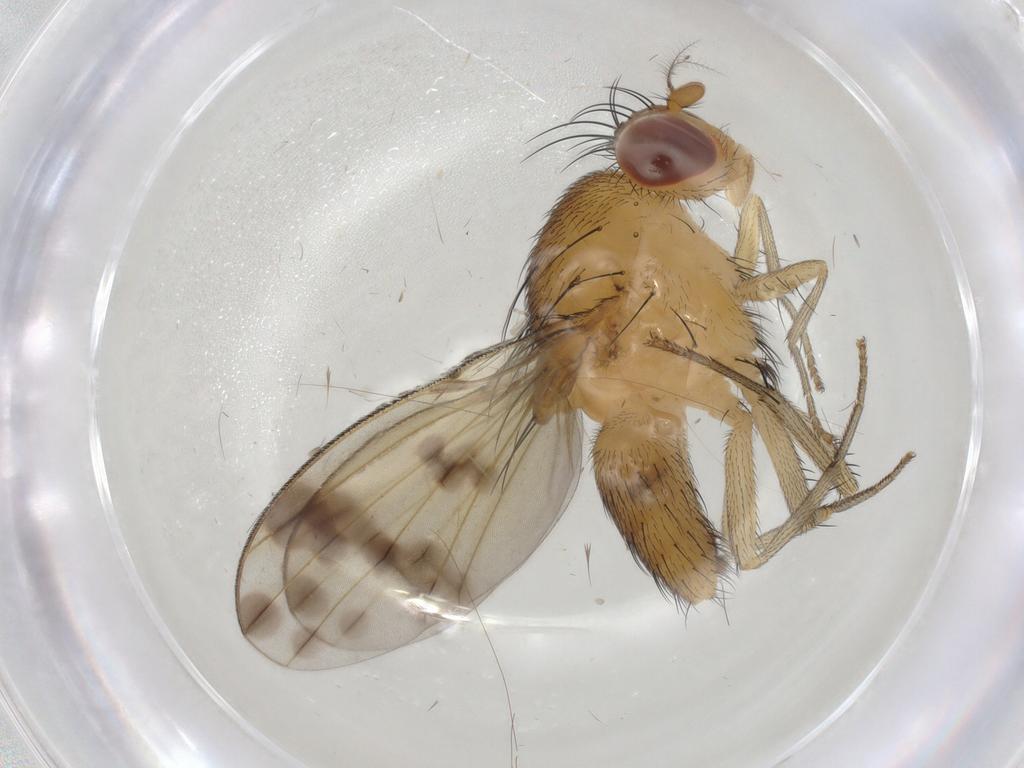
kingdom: Animalia
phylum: Arthropoda
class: Insecta
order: Diptera
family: Cecidomyiidae
